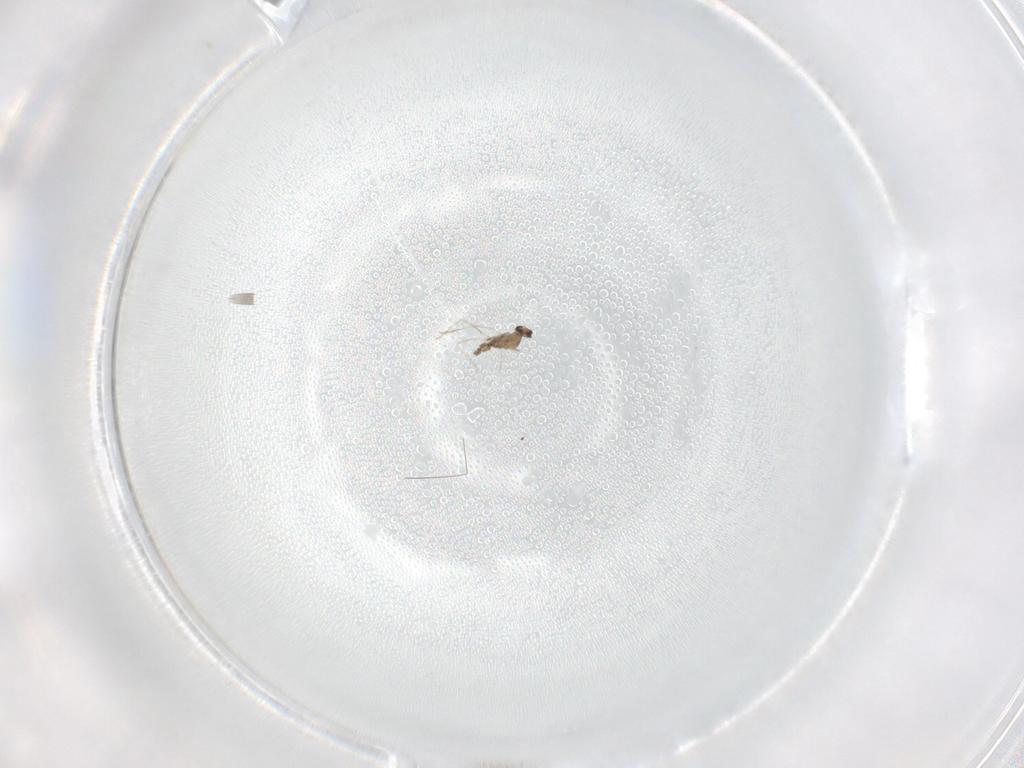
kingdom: Animalia
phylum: Arthropoda
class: Insecta
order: Diptera
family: Cecidomyiidae
